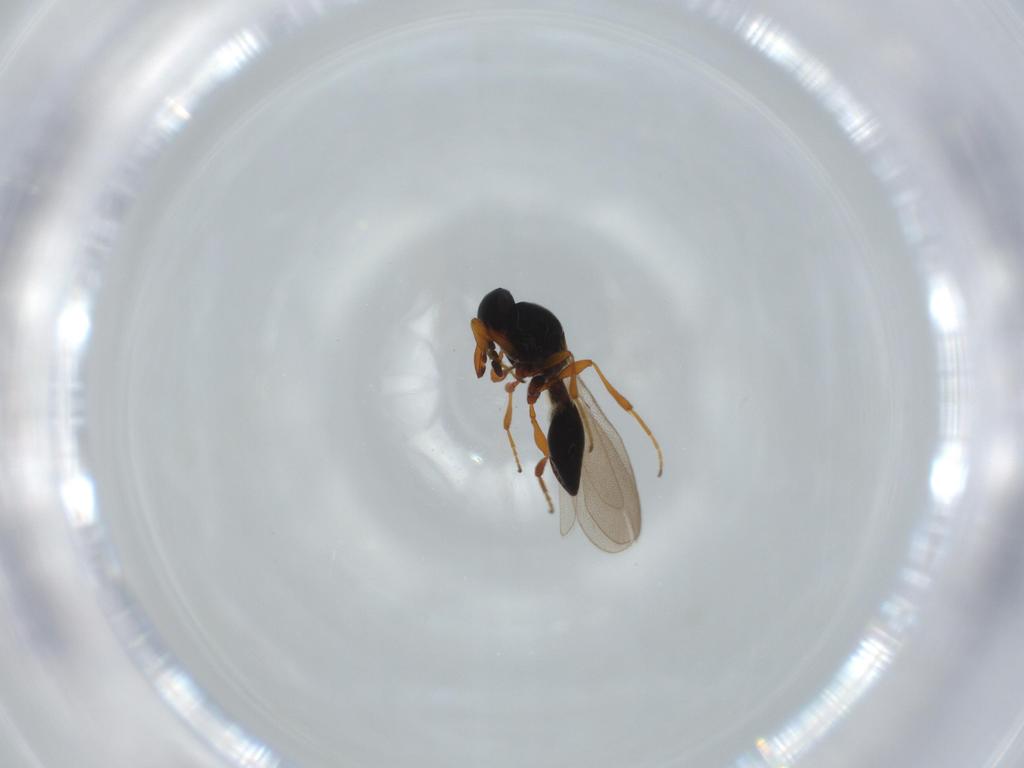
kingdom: Animalia
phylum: Arthropoda
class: Insecta
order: Hymenoptera
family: Platygastridae
